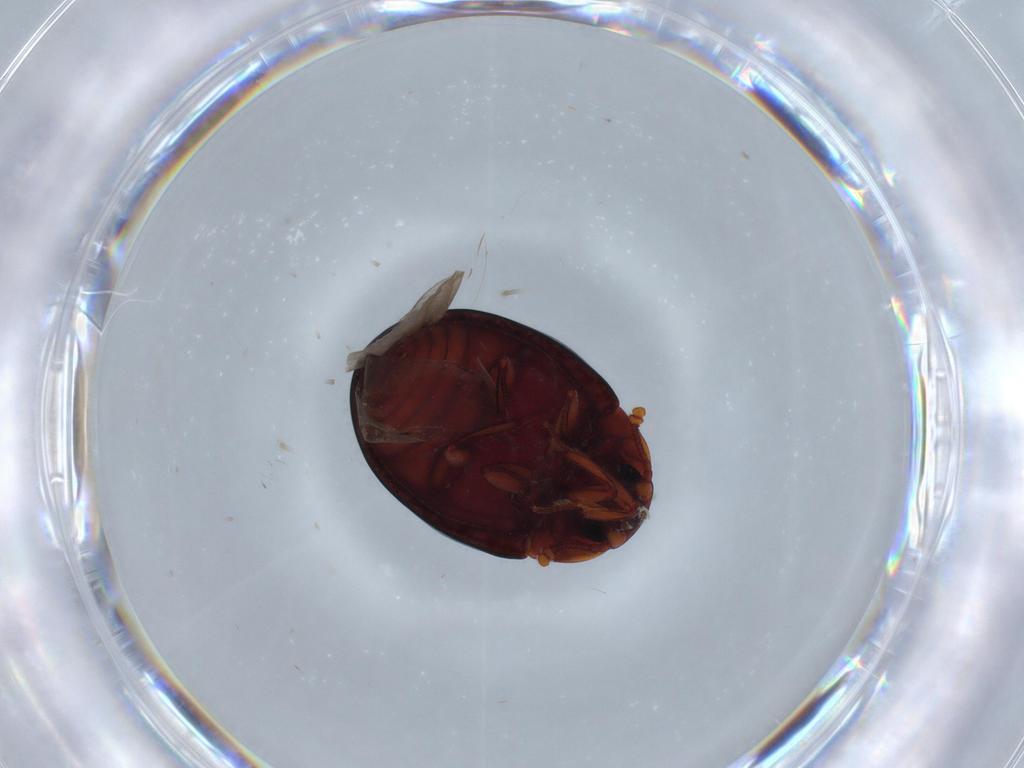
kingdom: Animalia
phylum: Arthropoda
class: Insecta
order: Coleoptera
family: Zopheridae
